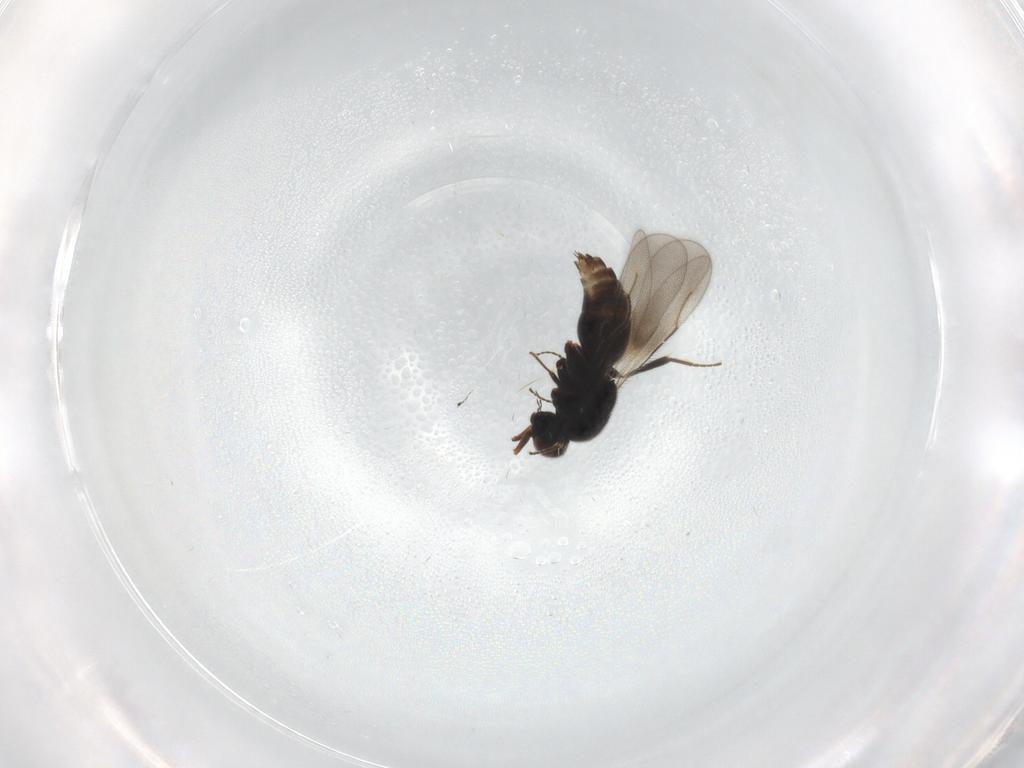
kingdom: Animalia
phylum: Arthropoda
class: Insecta
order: Hymenoptera
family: Ceraphronidae
